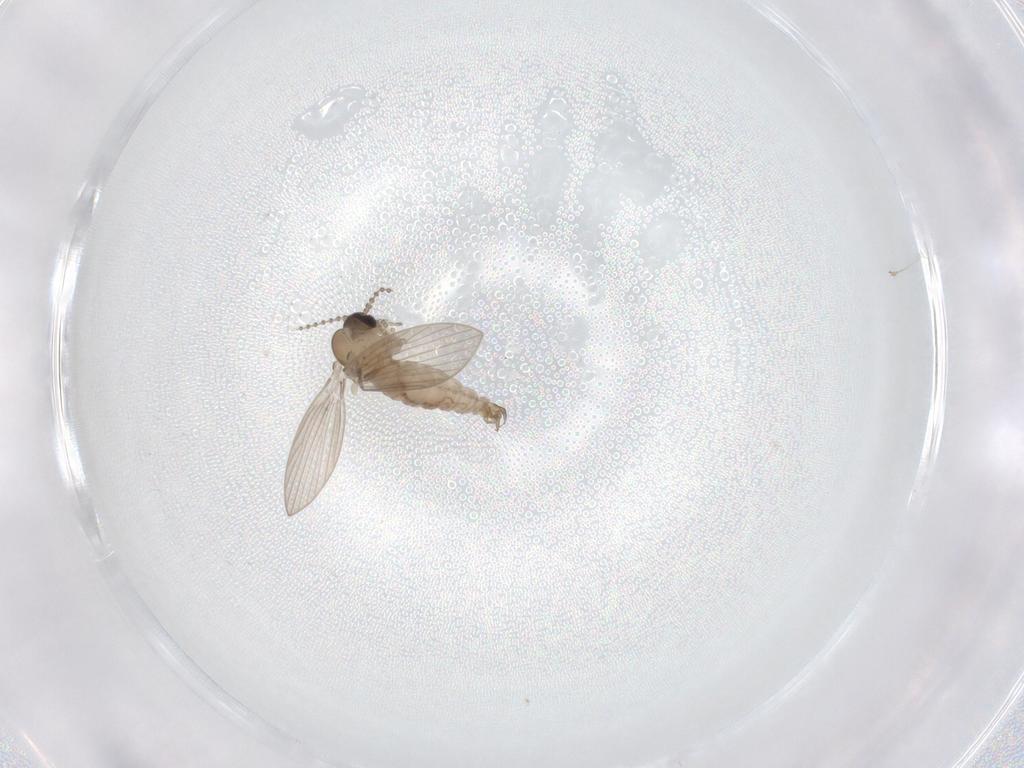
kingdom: Animalia
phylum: Arthropoda
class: Insecta
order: Diptera
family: Psychodidae
